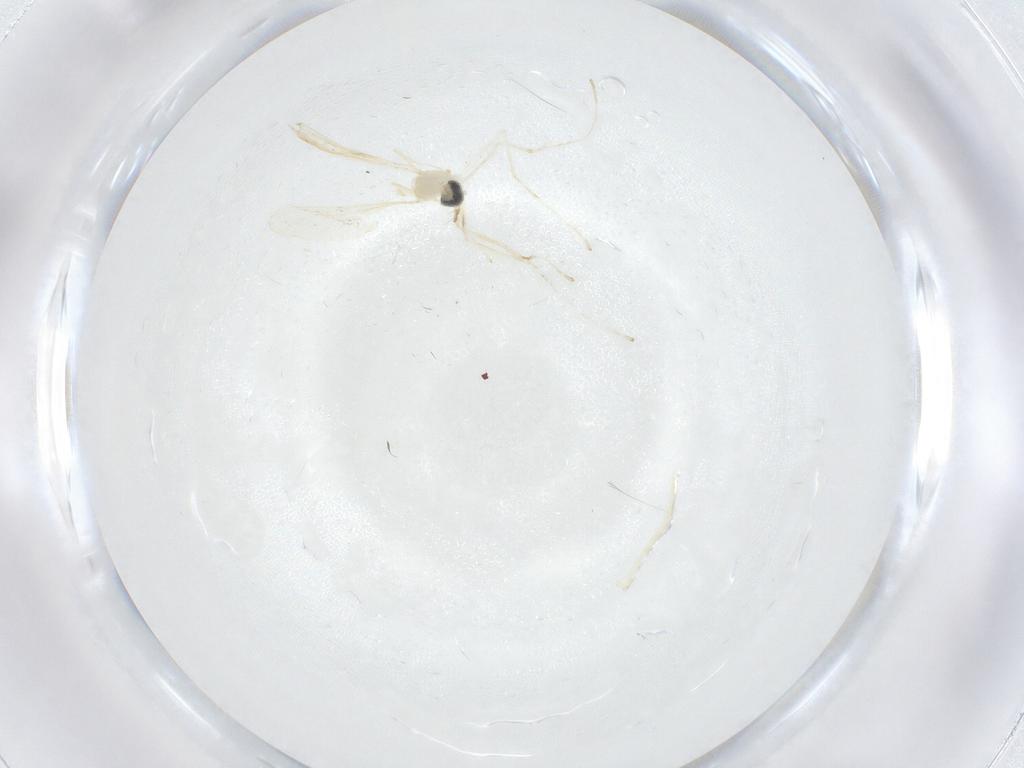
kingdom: Animalia
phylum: Arthropoda
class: Insecta
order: Diptera
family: Cecidomyiidae
